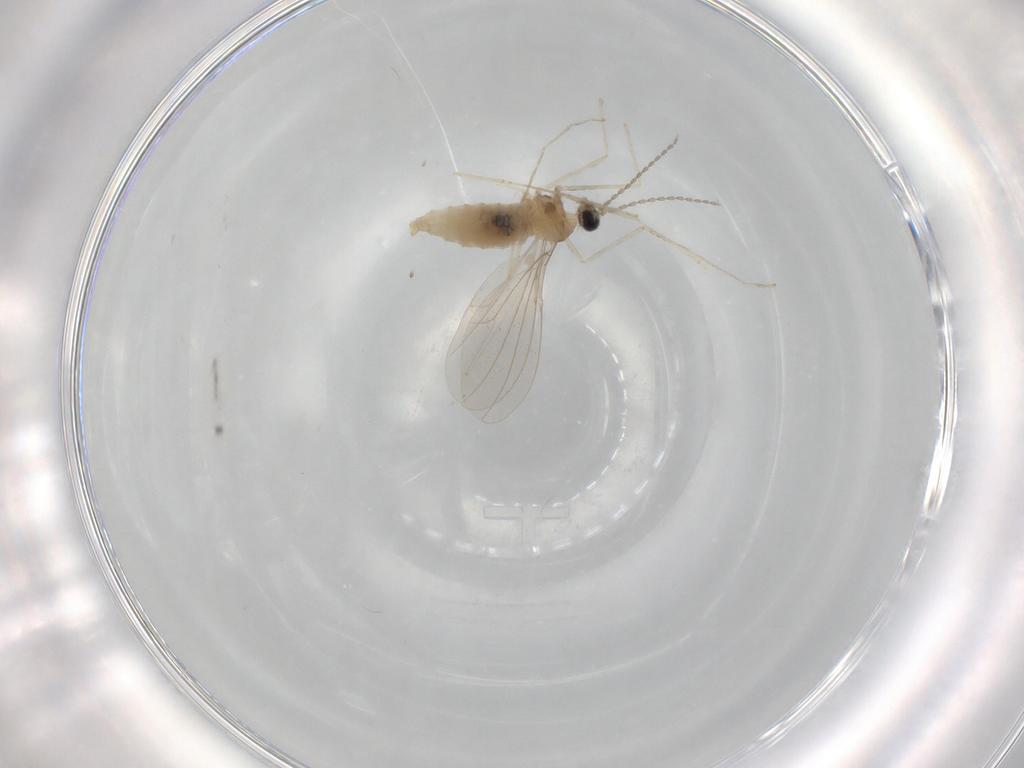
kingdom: Animalia
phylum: Arthropoda
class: Insecta
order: Diptera
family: Cecidomyiidae
